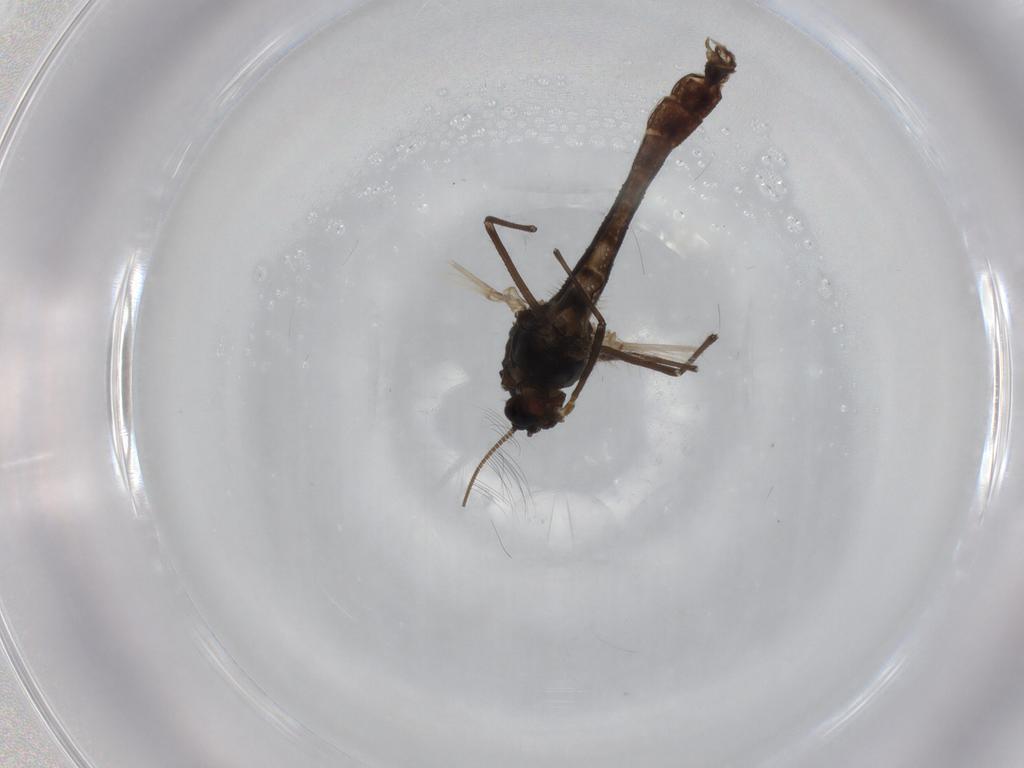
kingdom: Animalia
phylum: Arthropoda
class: Insecta
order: Diptera
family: Chironomidae
